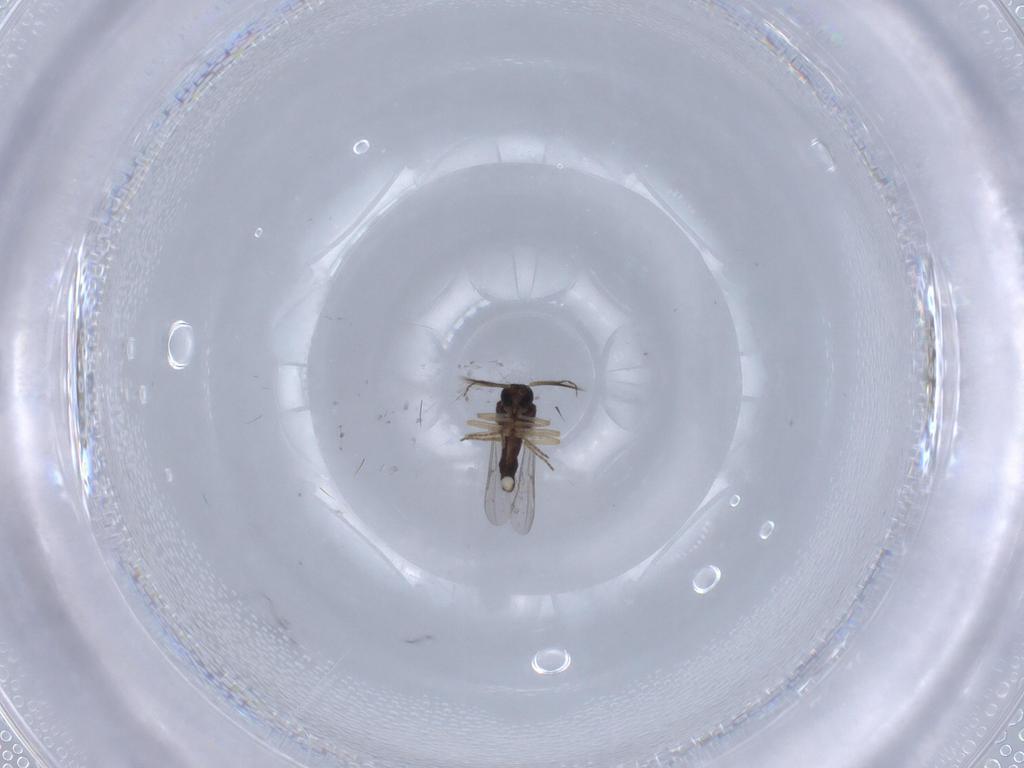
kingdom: Animalia
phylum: Arthropoda
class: Insecta
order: Diptera
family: Ceratopogonidae
